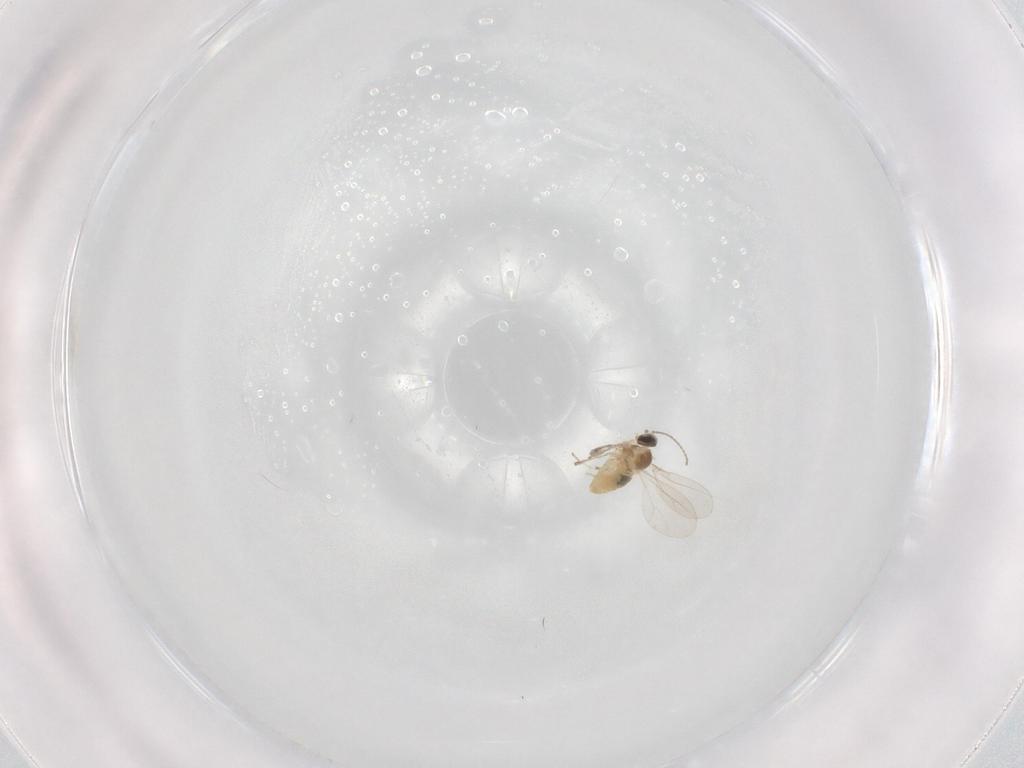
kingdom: Animalia
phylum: Arthropoda
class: Insecta
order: Diptera
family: Cecidomyiidae
